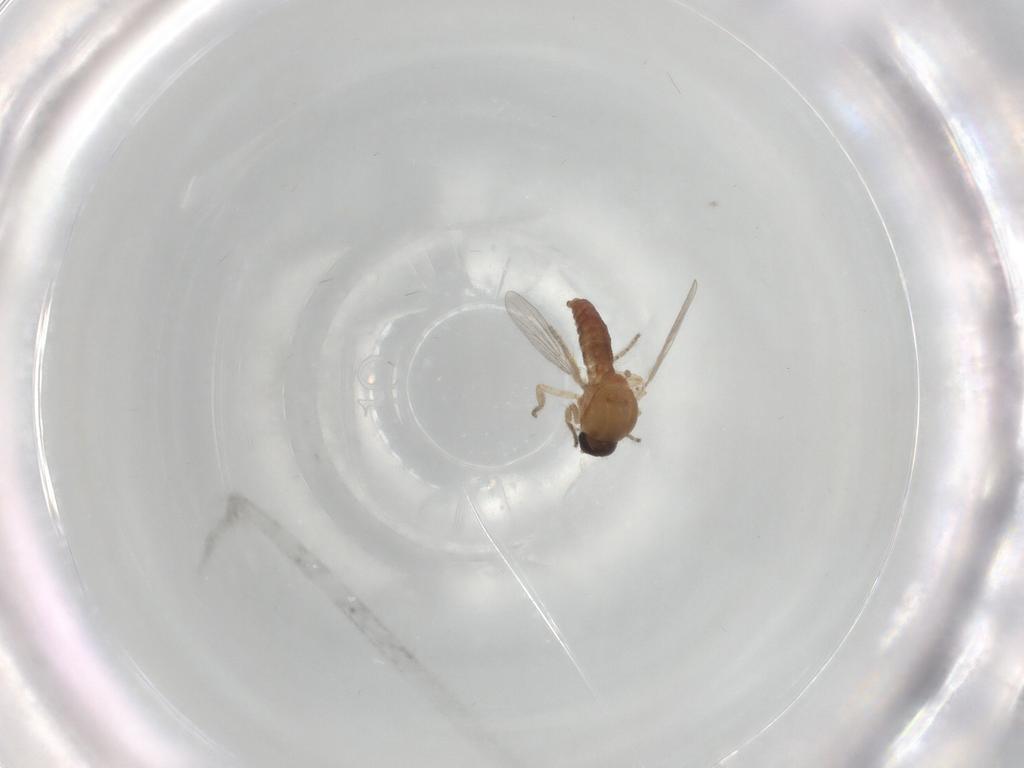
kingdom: Animalia
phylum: Arthropoda
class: Insecta
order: Diptera
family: Ceratopogonidae
